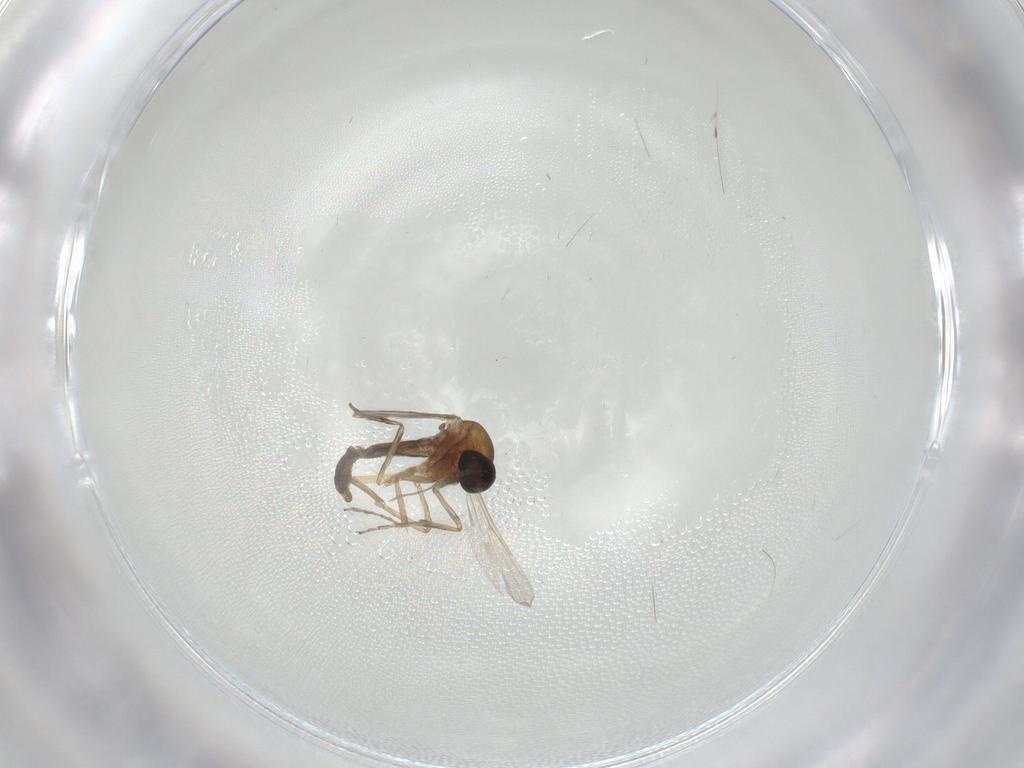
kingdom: Animalia
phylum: Arthropoda
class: Insecta
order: Diptera
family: Ceratopogonidae
